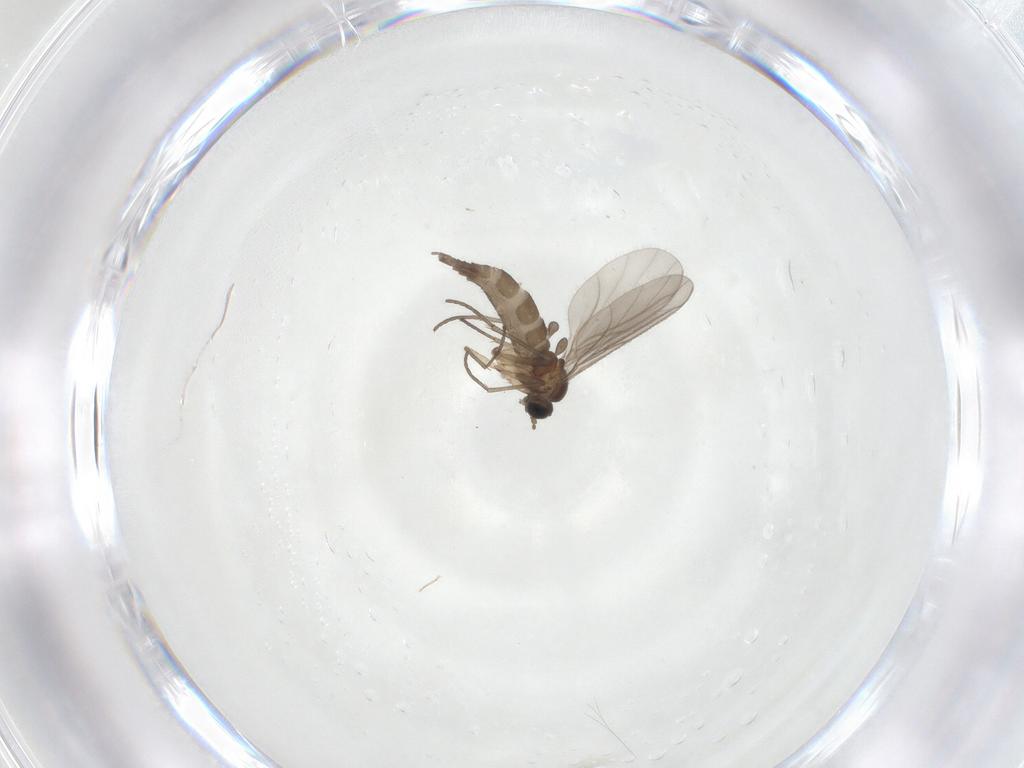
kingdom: Animalia
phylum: Arthropoda
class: Insecta
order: Diptera
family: Sciaridae
